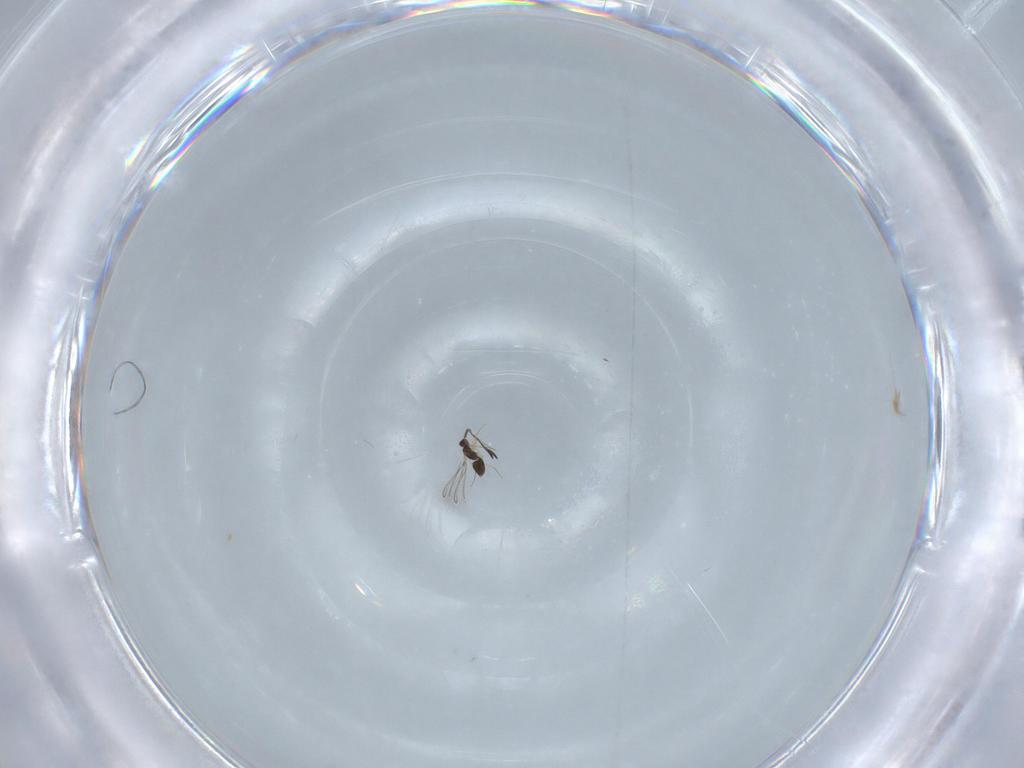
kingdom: Animalia
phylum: Arthropoda
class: Insecta
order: Hymenoptera
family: Mymaridae
